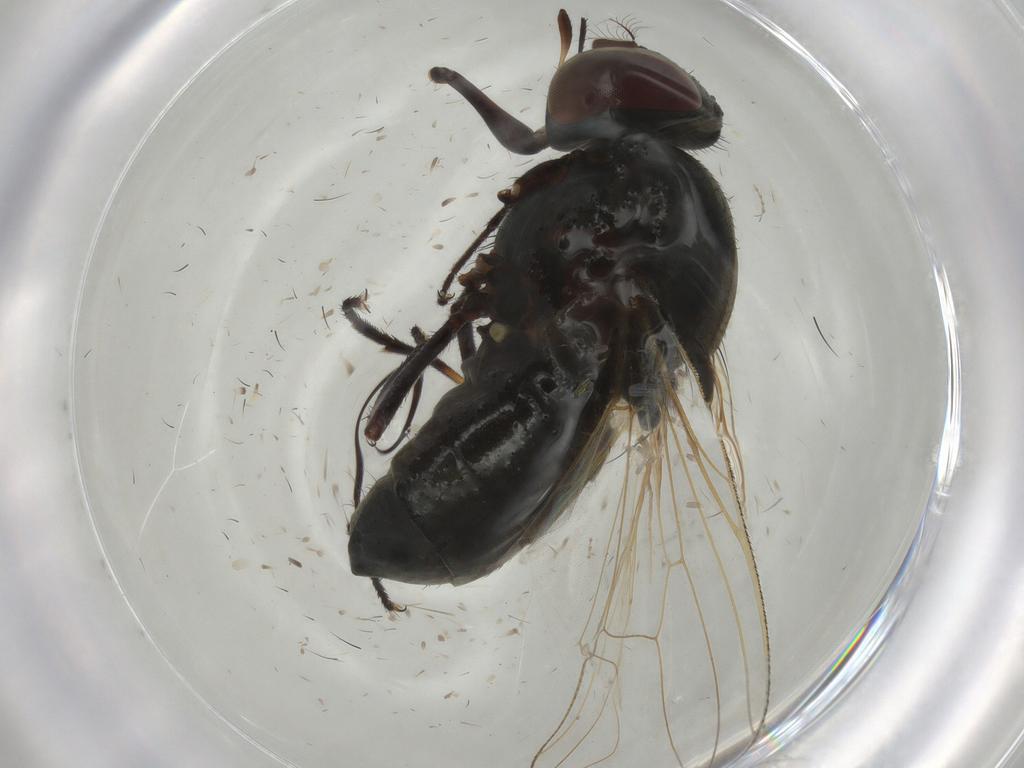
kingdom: Animalia
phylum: Arthropoda
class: Insecta
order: Diptera
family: Muscidae
